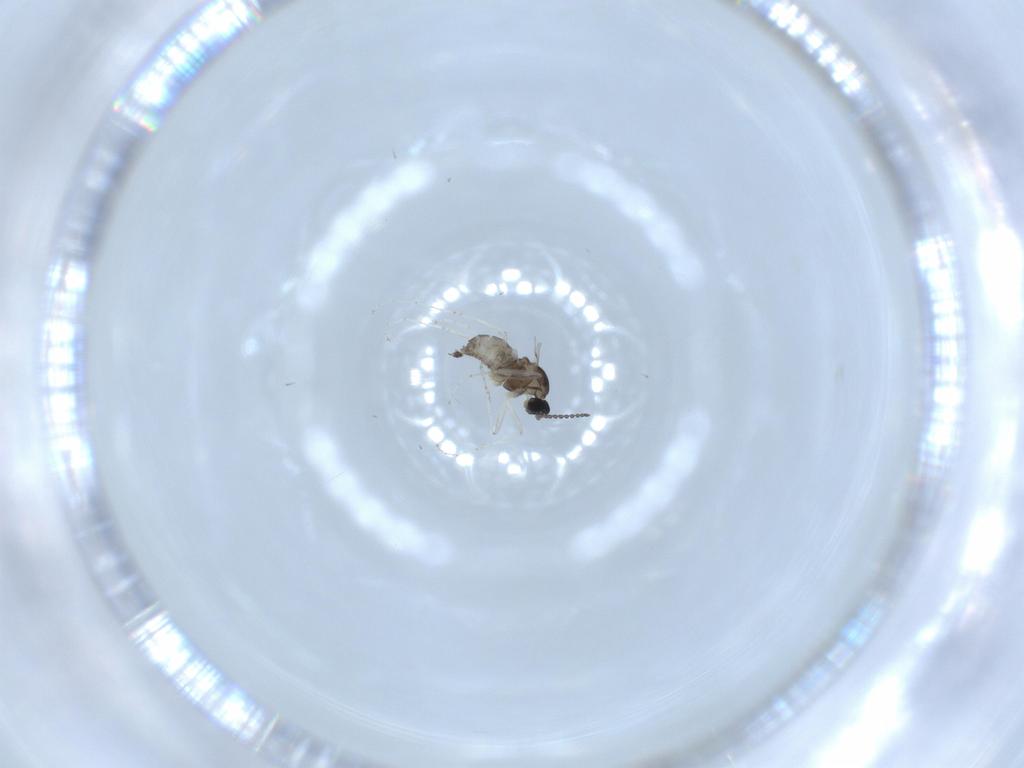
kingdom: Animalia
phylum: Arthropoda
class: Insecta
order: Diptera
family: Cecidomyiidae
